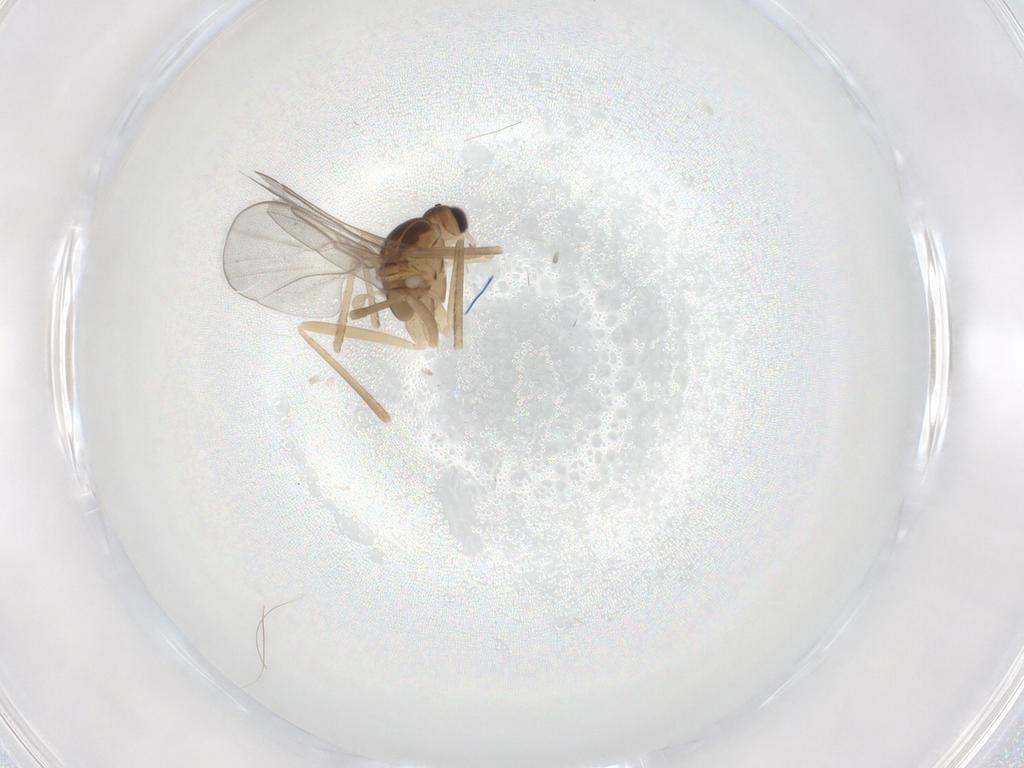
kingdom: Animalia
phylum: Arthropoda
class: Insecta
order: Diptera
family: Cecidomyiidae
